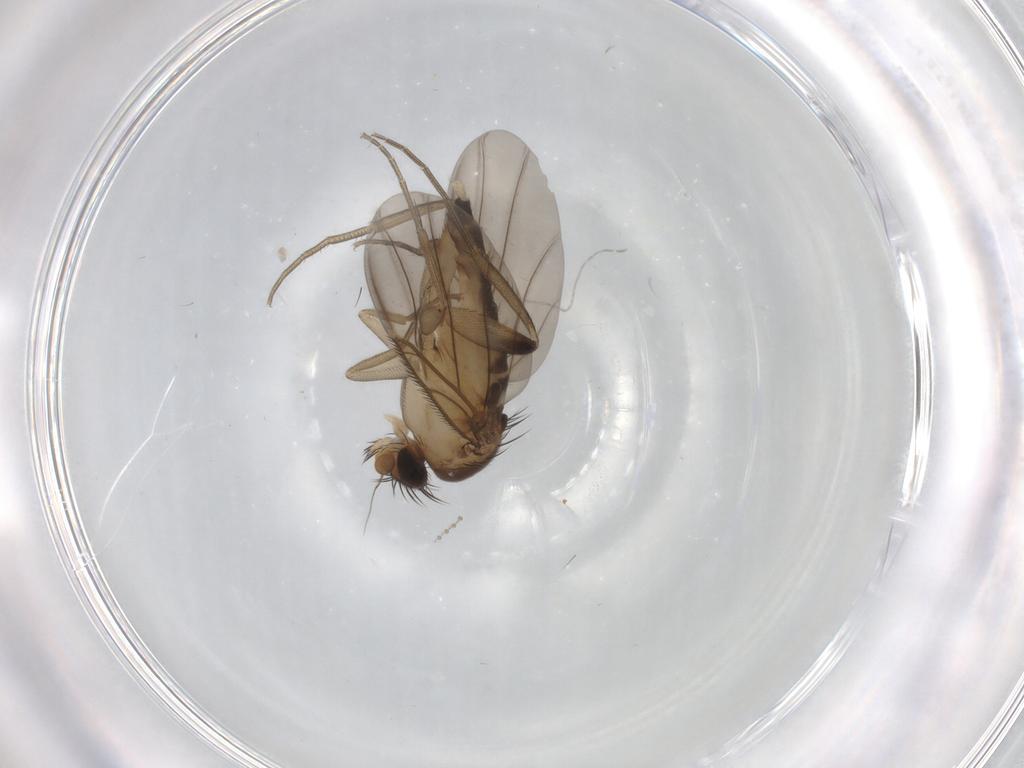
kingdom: Animalia
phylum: Arthropoda
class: Insecta
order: Diptera
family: Phoridae
